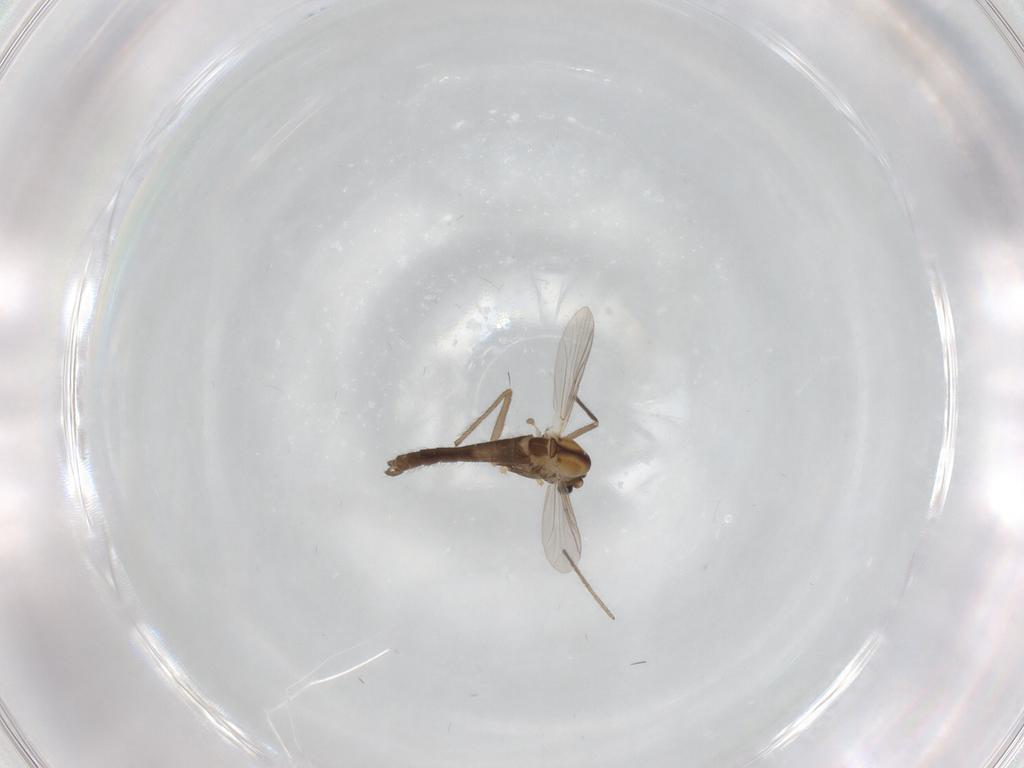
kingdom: Animalia
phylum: Arthropoda
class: Insecta
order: Diptera
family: Chironomidae
